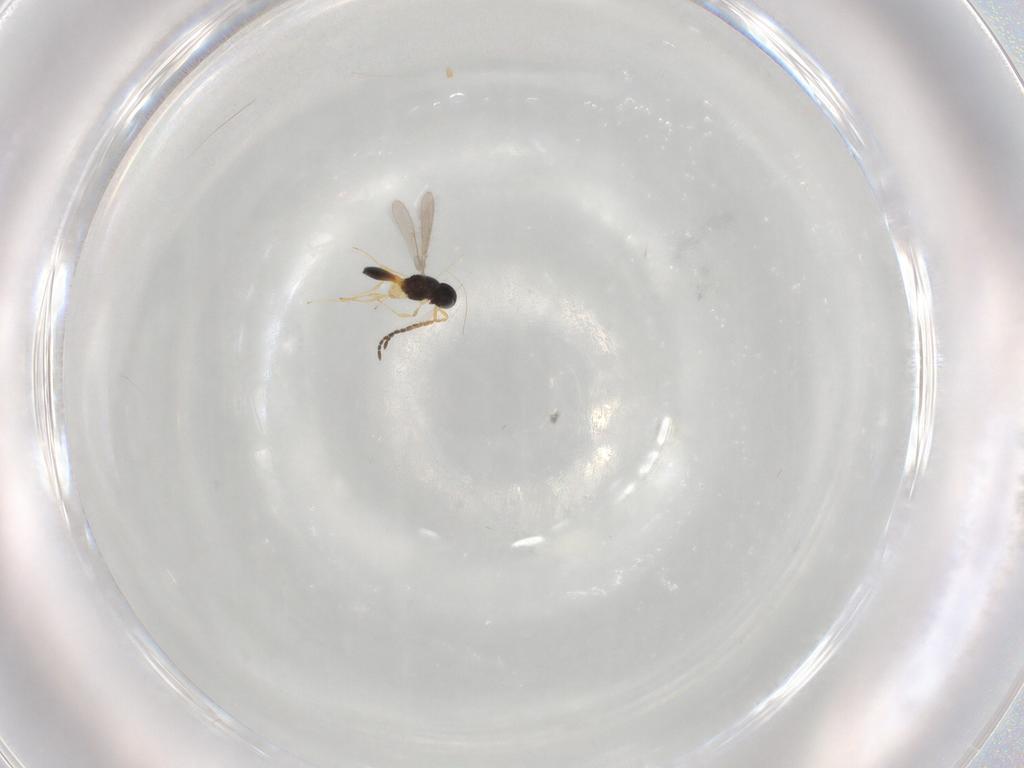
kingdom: Animalia
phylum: Arthropoda
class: Insecta
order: Hymenoptera
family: Scelionidae
